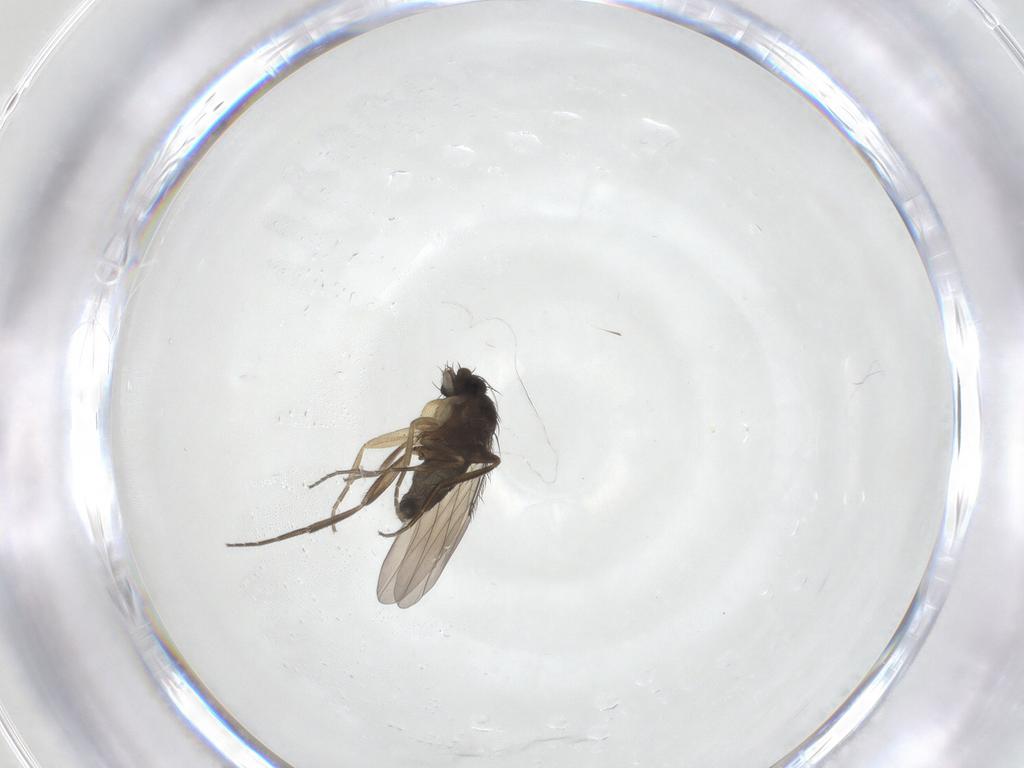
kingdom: Animalia
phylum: Arthropoda
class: Insecta
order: Diptera
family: Phoridae
